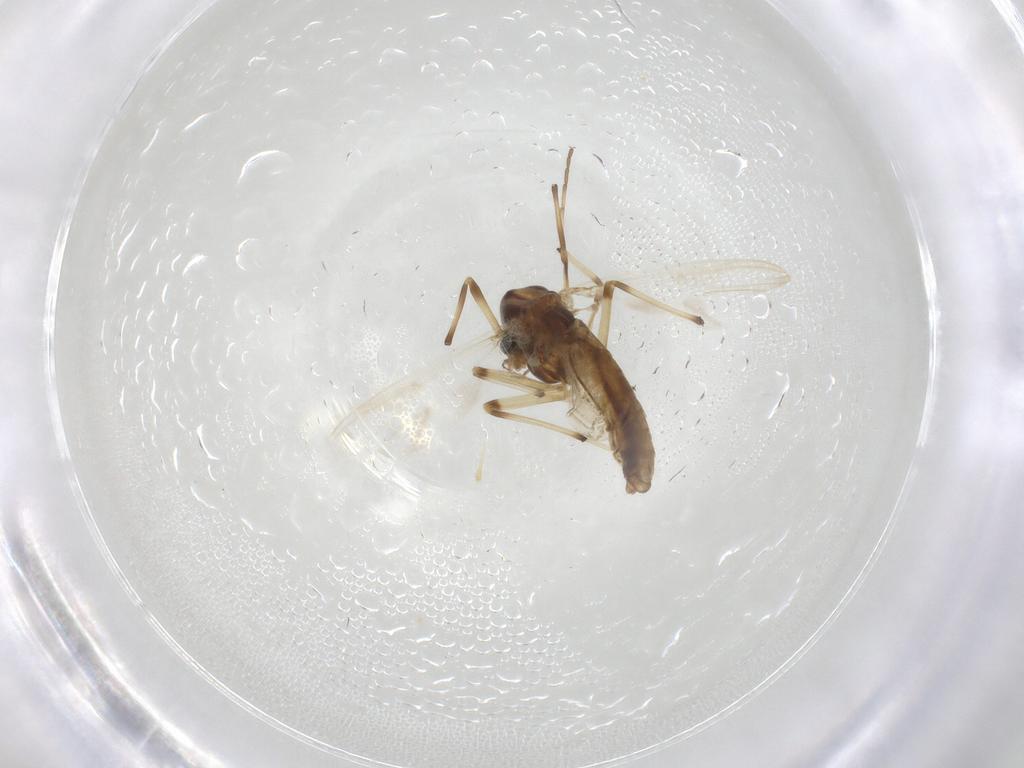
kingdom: Animalia
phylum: Arthropoda
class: Insecta
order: Diptera
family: Chironomidae
